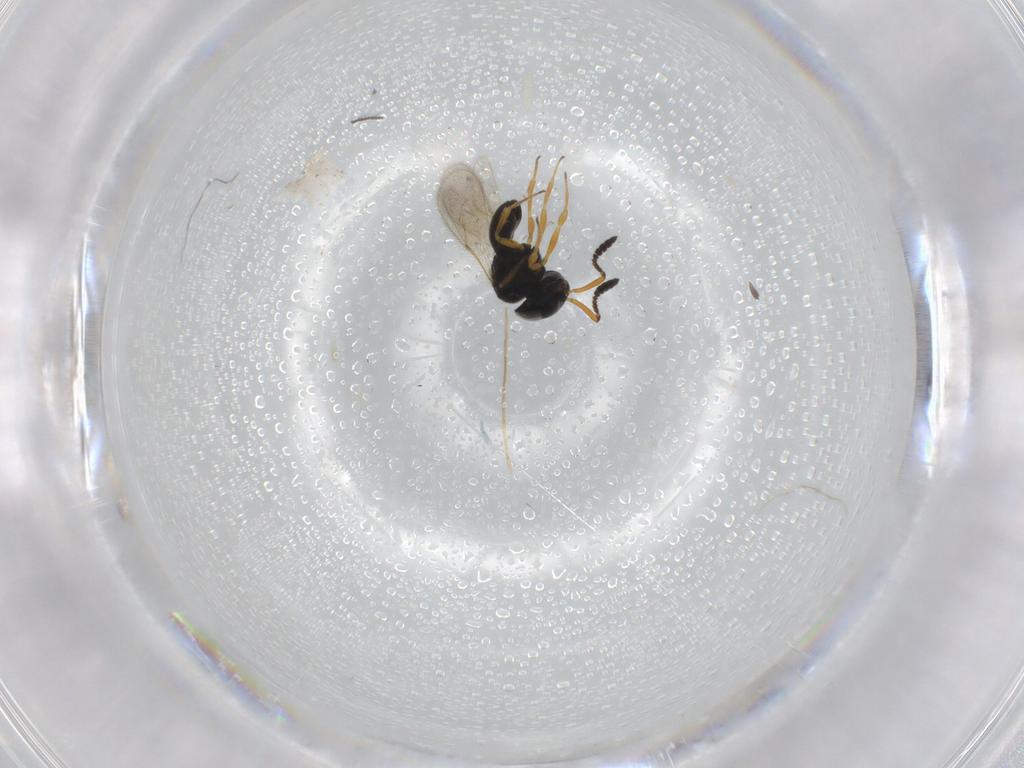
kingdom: Animalia
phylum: Arthropoda
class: Insecta
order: Hymenoptera
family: Scelionidae
